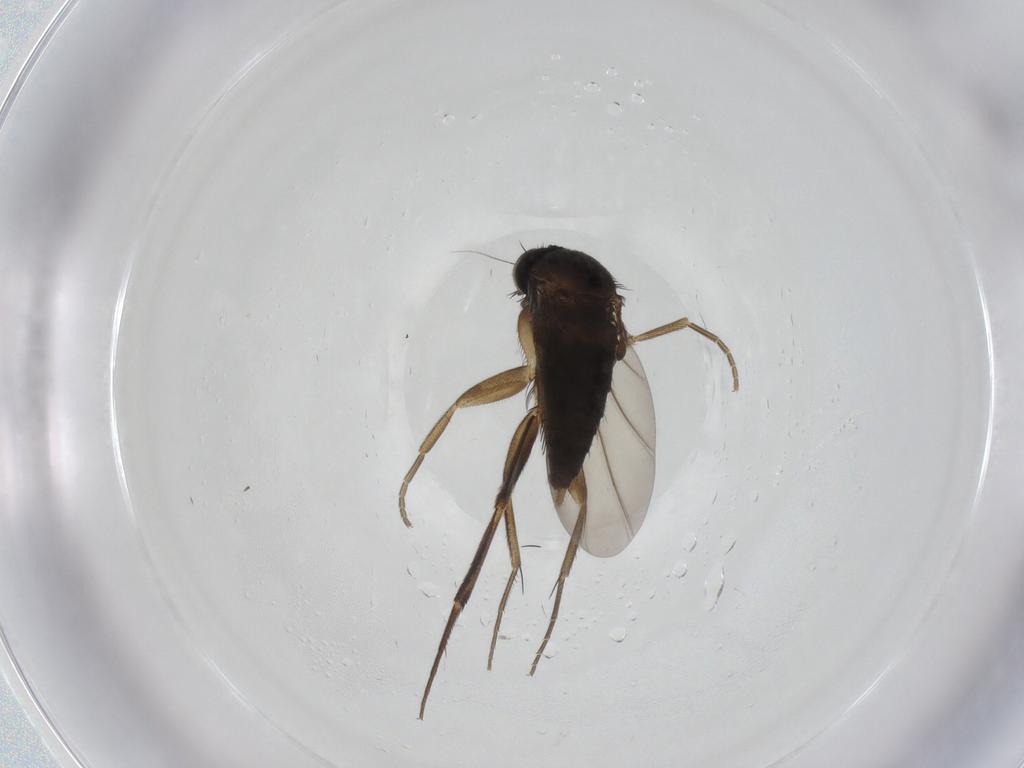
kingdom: Animalia
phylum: Arthropoda
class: Insecta
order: Diptera
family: Phoridae
